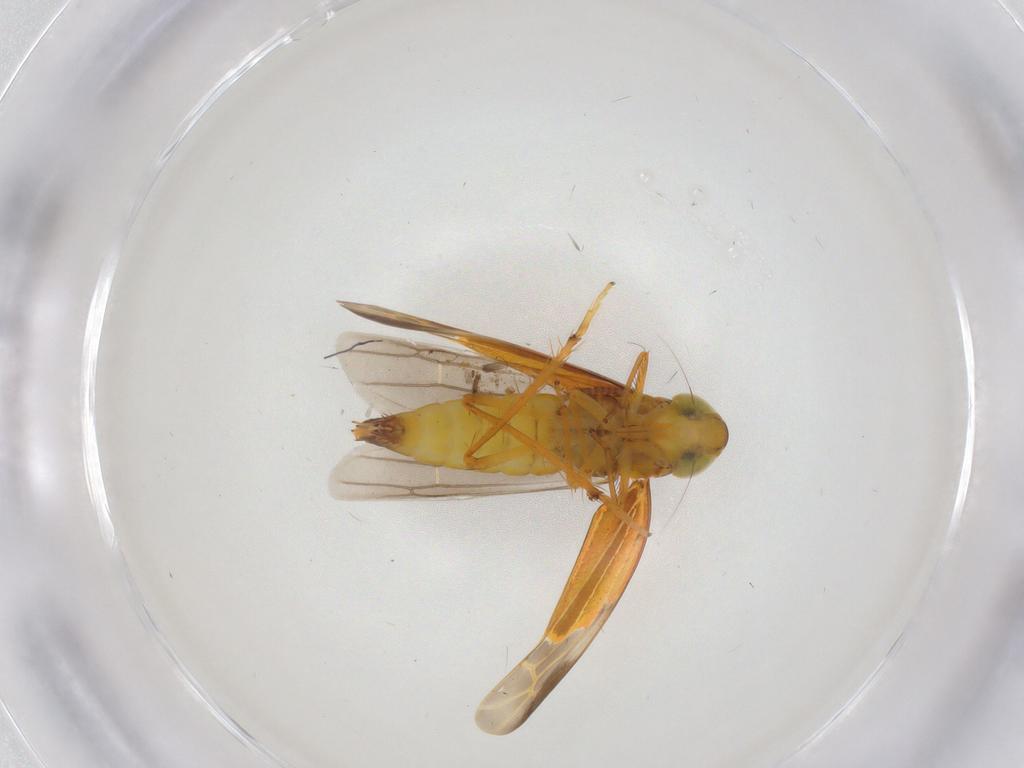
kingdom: Animalia
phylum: Arthropoda
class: Insecta
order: Hemiptera
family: Cicadellidae
